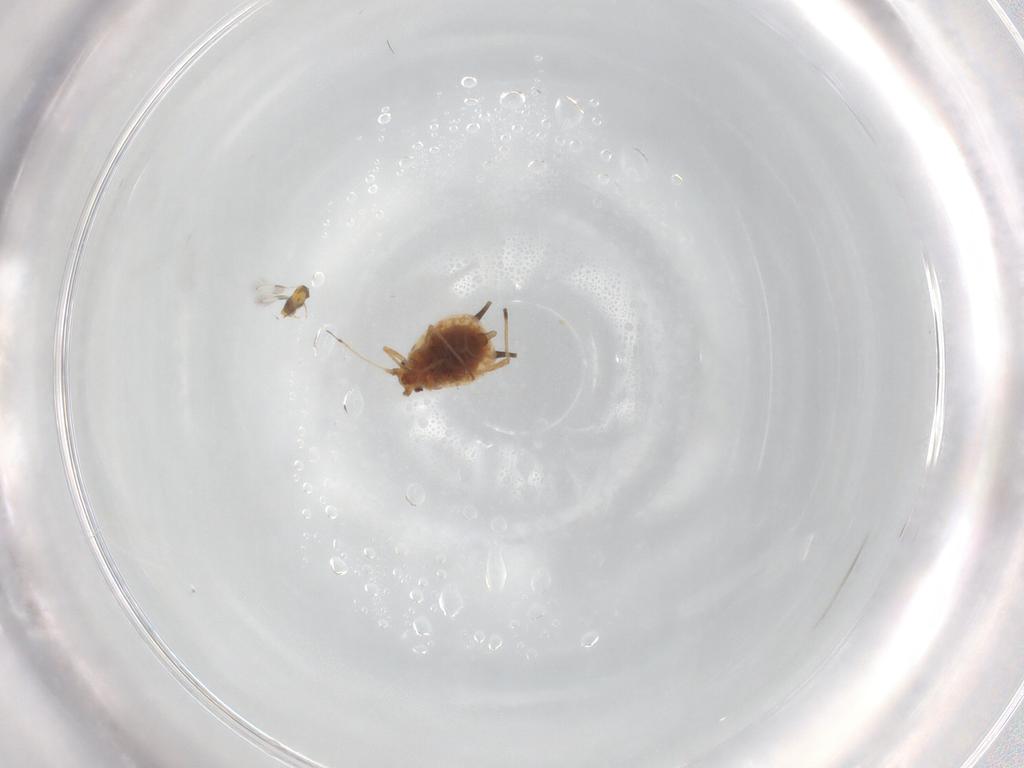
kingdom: Animalia
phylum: Arthropoda
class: Insecta
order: Hemiptera
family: Aphididae
